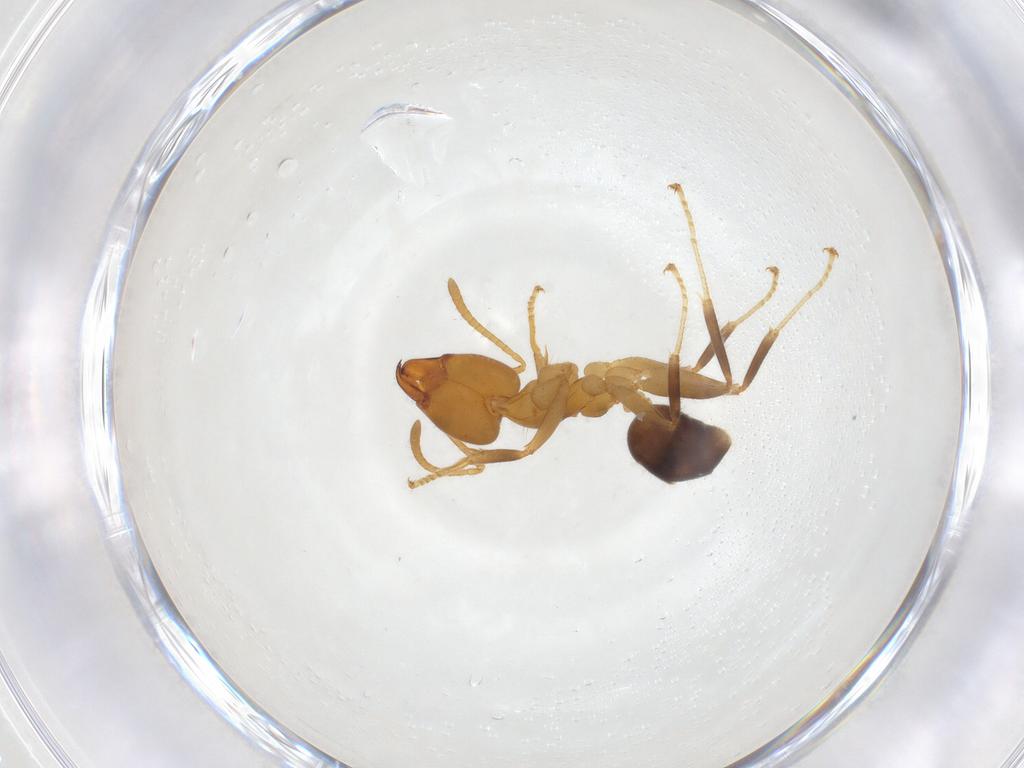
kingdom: Animalia
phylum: Arthropoda
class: Insecta
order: Hymenoptera
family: Formicidae
